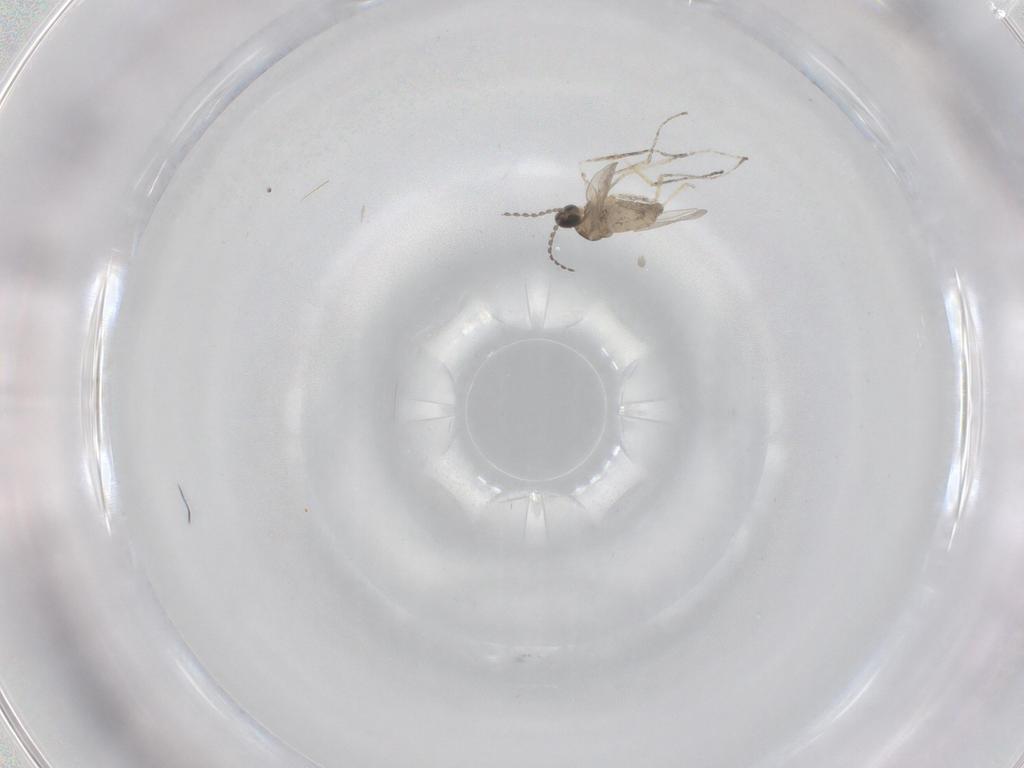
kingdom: Animalia
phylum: Arthropoda
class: Insecta
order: Diptera
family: Cecidomyiidae
